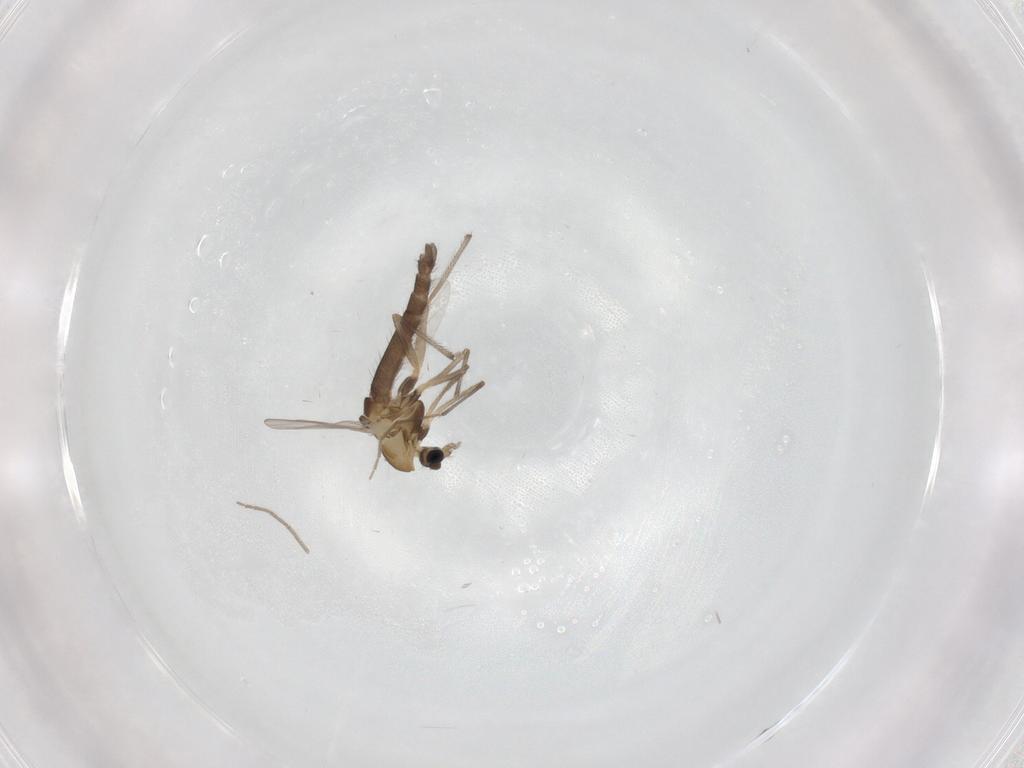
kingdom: Animalia
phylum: Arthropoda
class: Insecta
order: Diptera
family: Chironomidae
